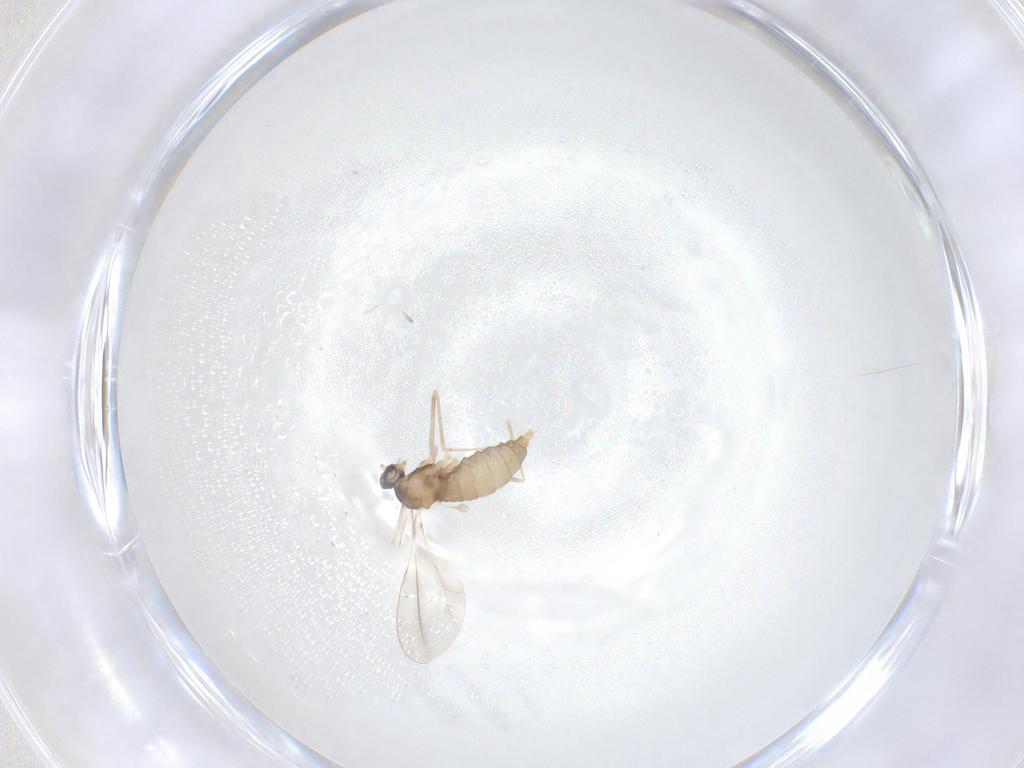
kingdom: Animalia
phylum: Arthropoda
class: Insecta
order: Diptera
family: Cecidomyiidae
